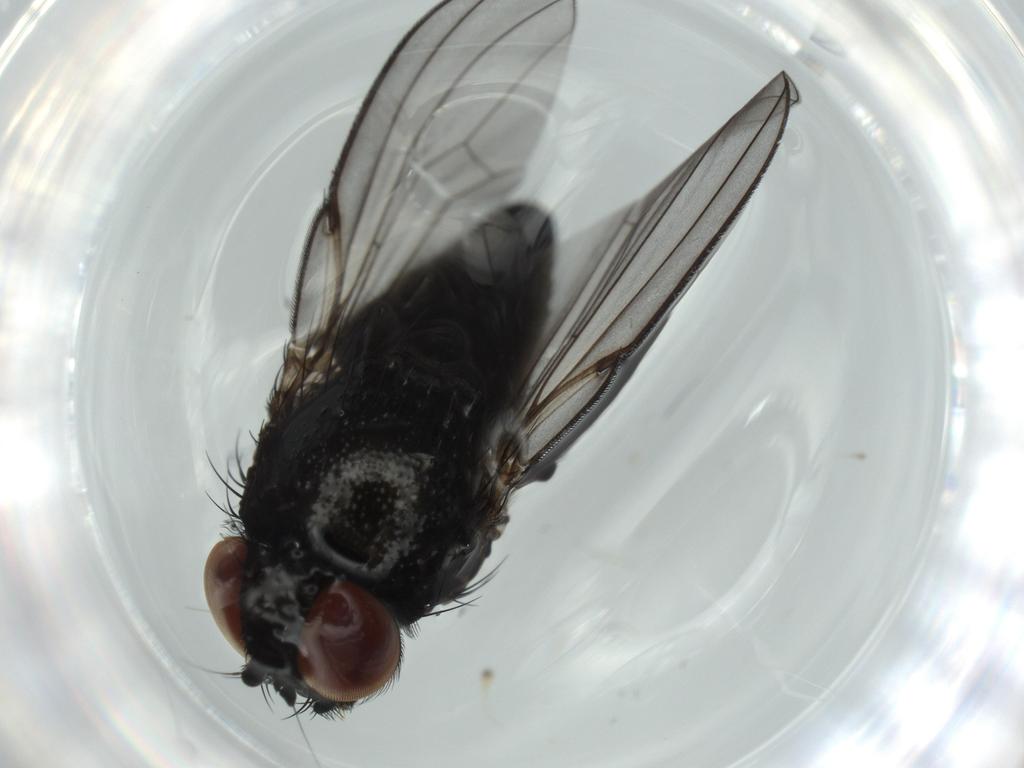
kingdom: Animalia
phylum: Arthropoda
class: Insecta
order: Diptera
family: Milichiidae
